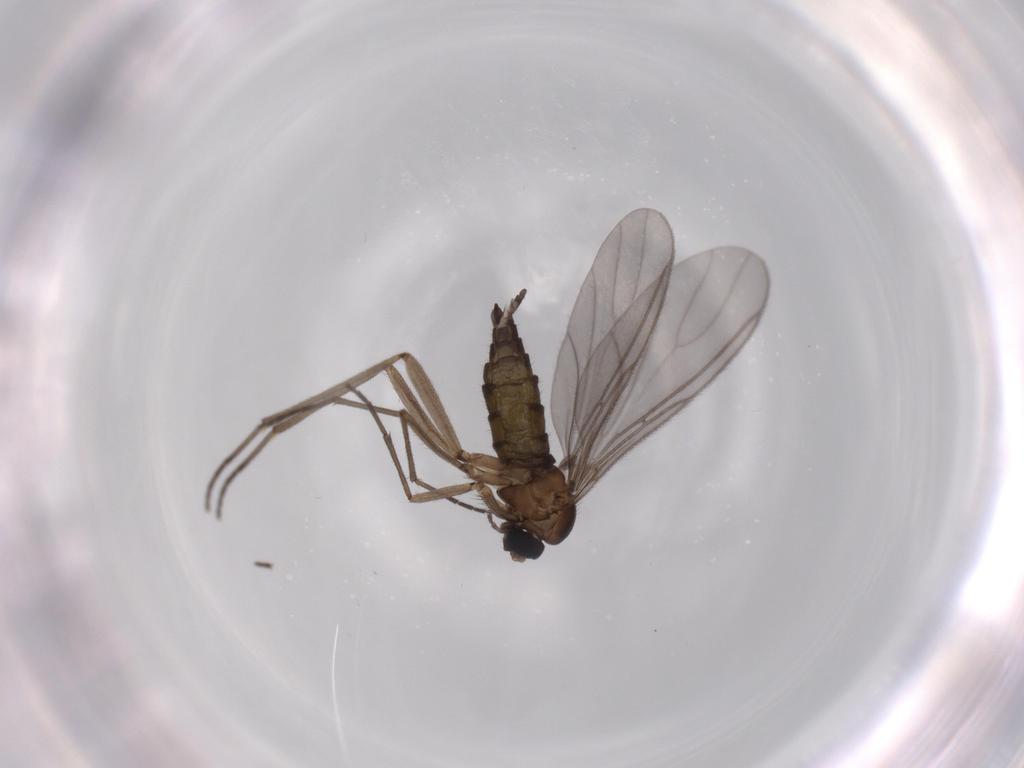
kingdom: Animalia
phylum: Arthropoda
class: Insecta
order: Diptera
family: Sciaridae
